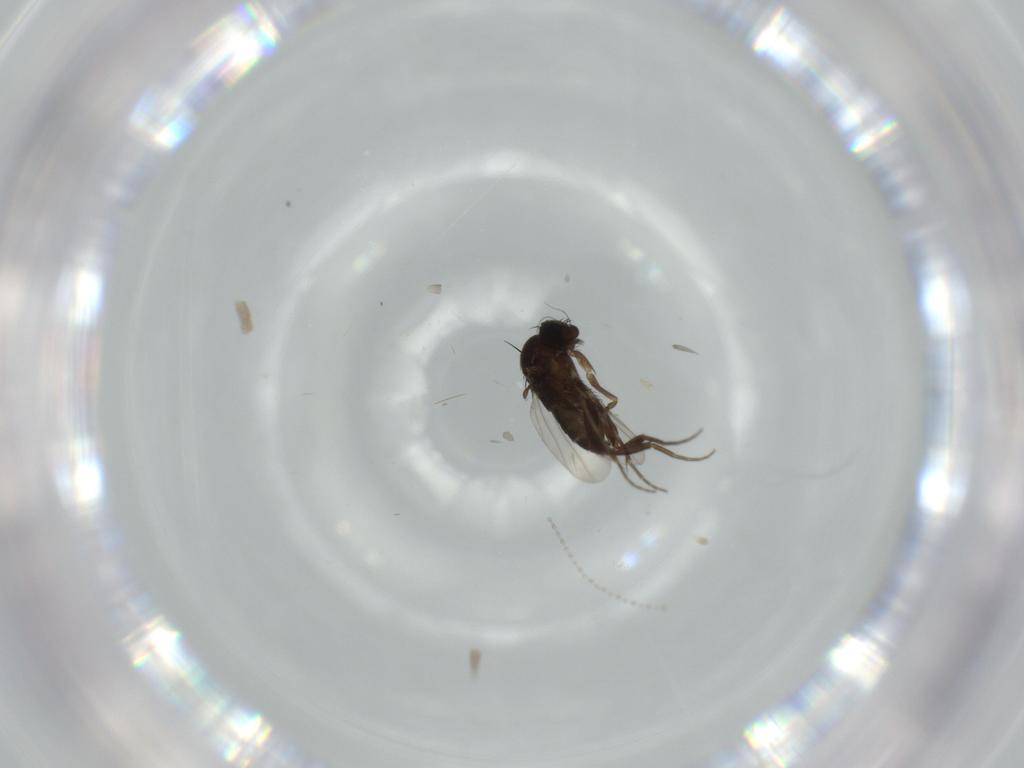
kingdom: Animalia
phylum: Arthropoda
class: Insecta
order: Diptera
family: Phoridae
